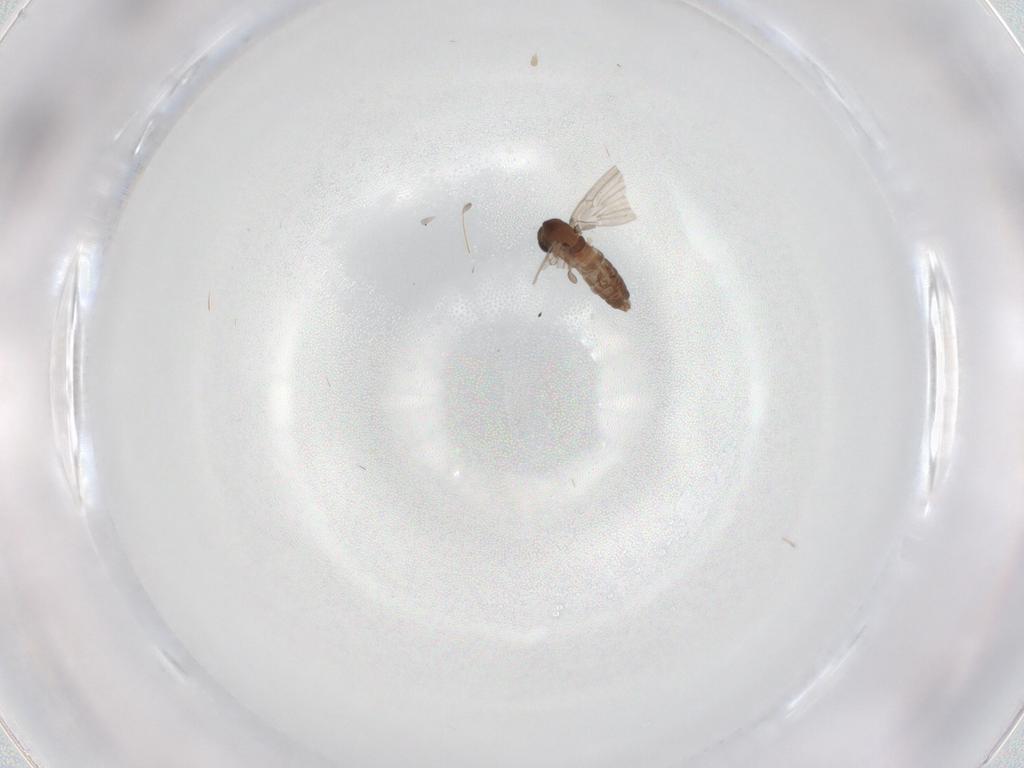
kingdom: Animalia
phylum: Arthropoda
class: Insecta
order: Diptera
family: Psychodidae
